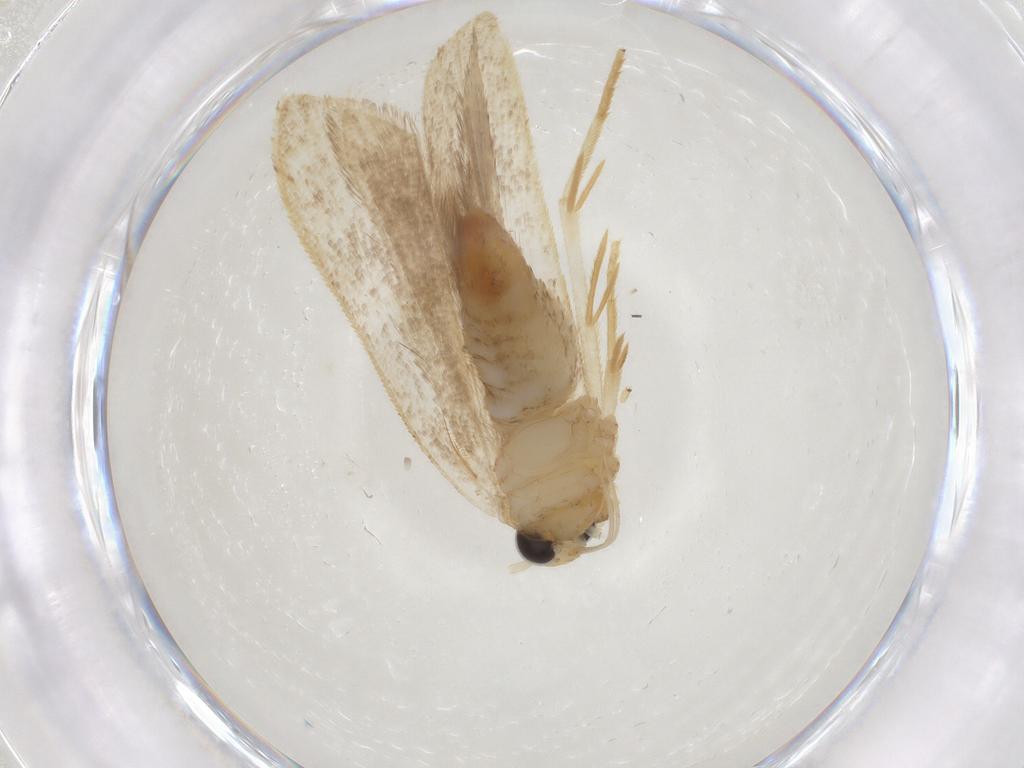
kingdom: Animalia
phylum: Arthropoda
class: Insecta
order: Lepidoptera
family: Gelechiidae
